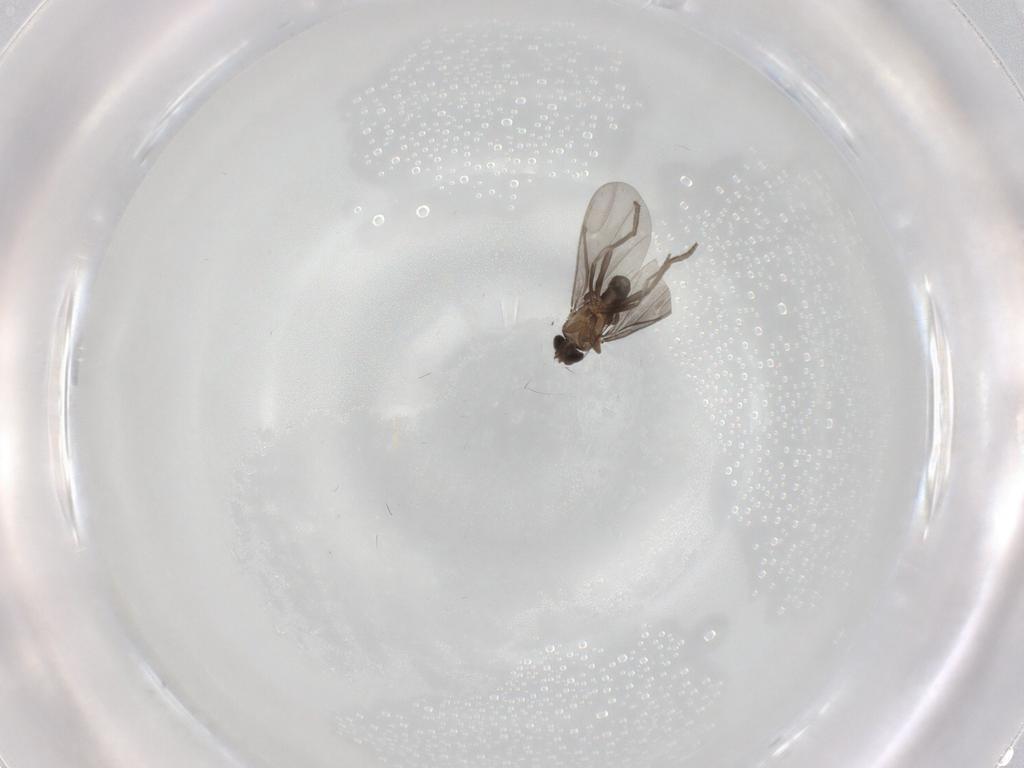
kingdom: Animalia
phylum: Arthropoda
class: Insecta
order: Diptera
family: Phoridae
